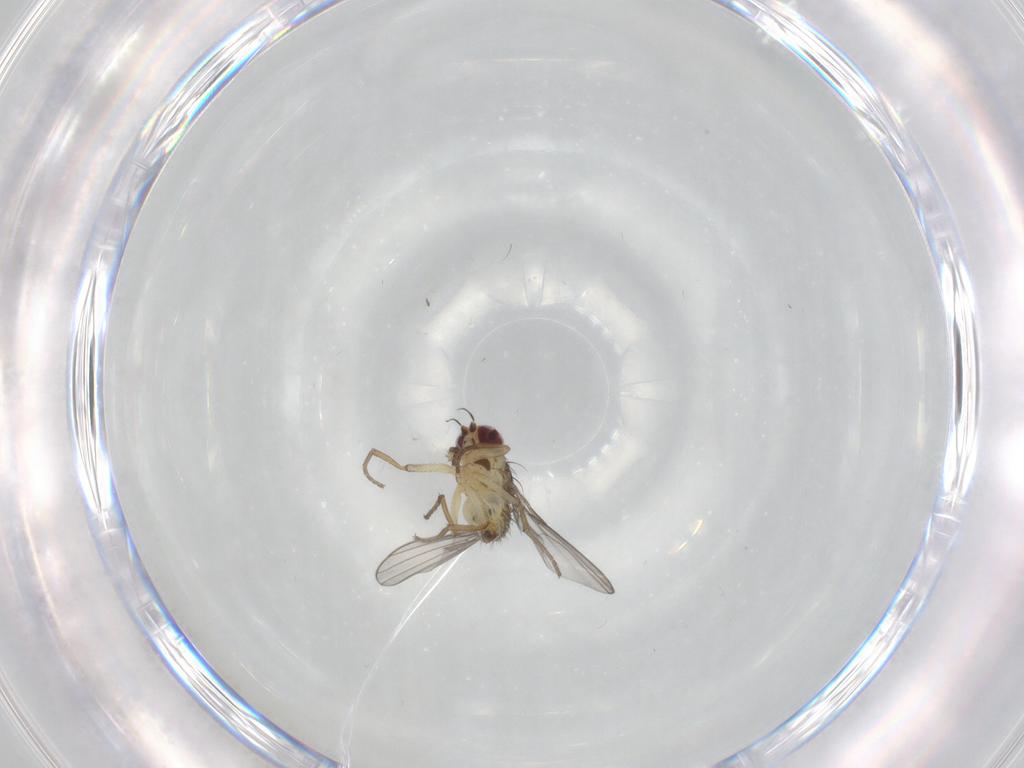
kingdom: Animalia
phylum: Arthropoda
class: Insecta
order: Diptera
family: Agromyzidae
